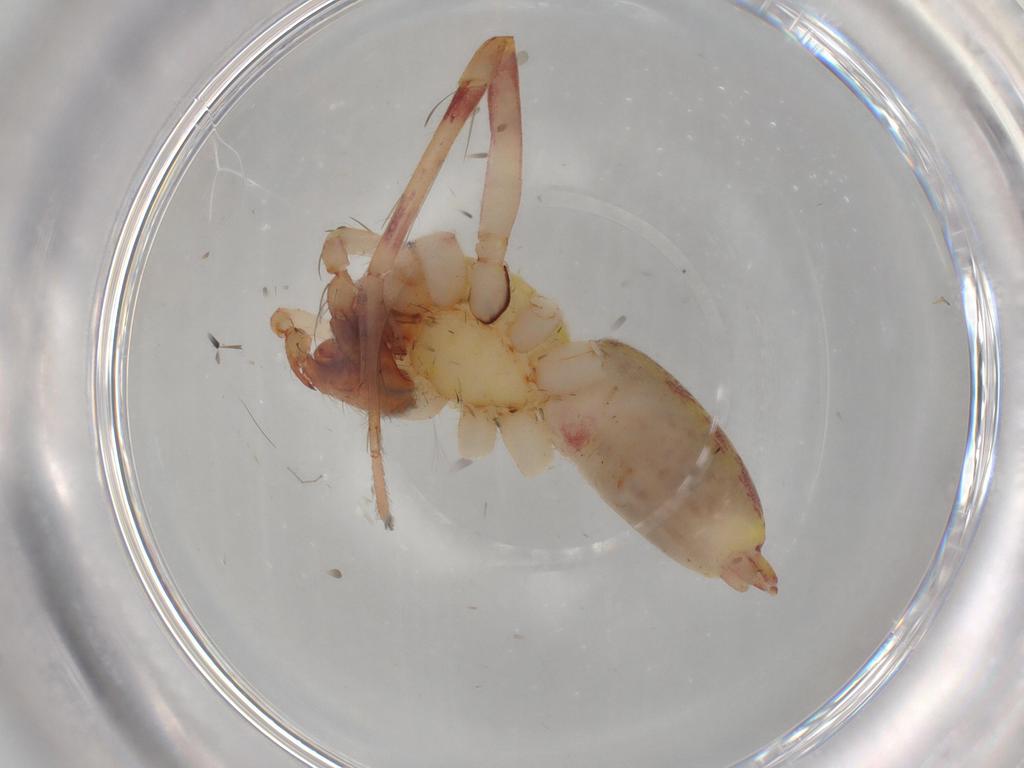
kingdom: Animalia
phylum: Arthropoda
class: Arachnida
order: Araneae
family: Anyphaenidae
